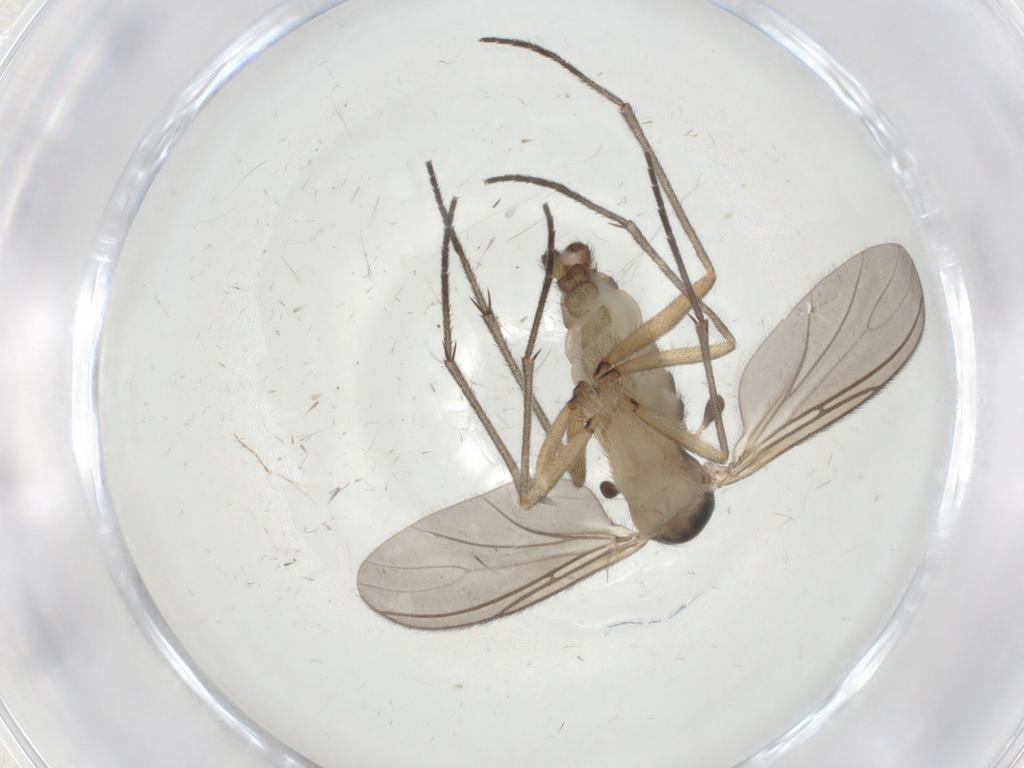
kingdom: Animalia
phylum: Arthropoda
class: Insecta
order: Diptera
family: Sciaridae
